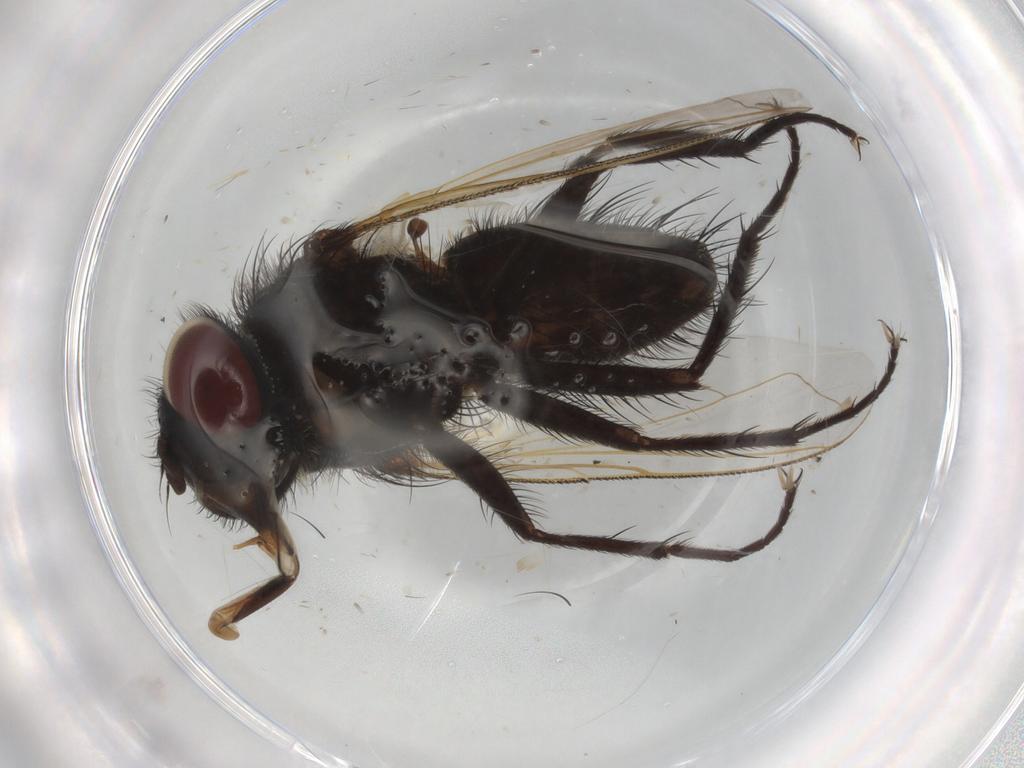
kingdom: Animalia
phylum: Arthropoda
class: Insecta
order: Diptera
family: Tachinidae
